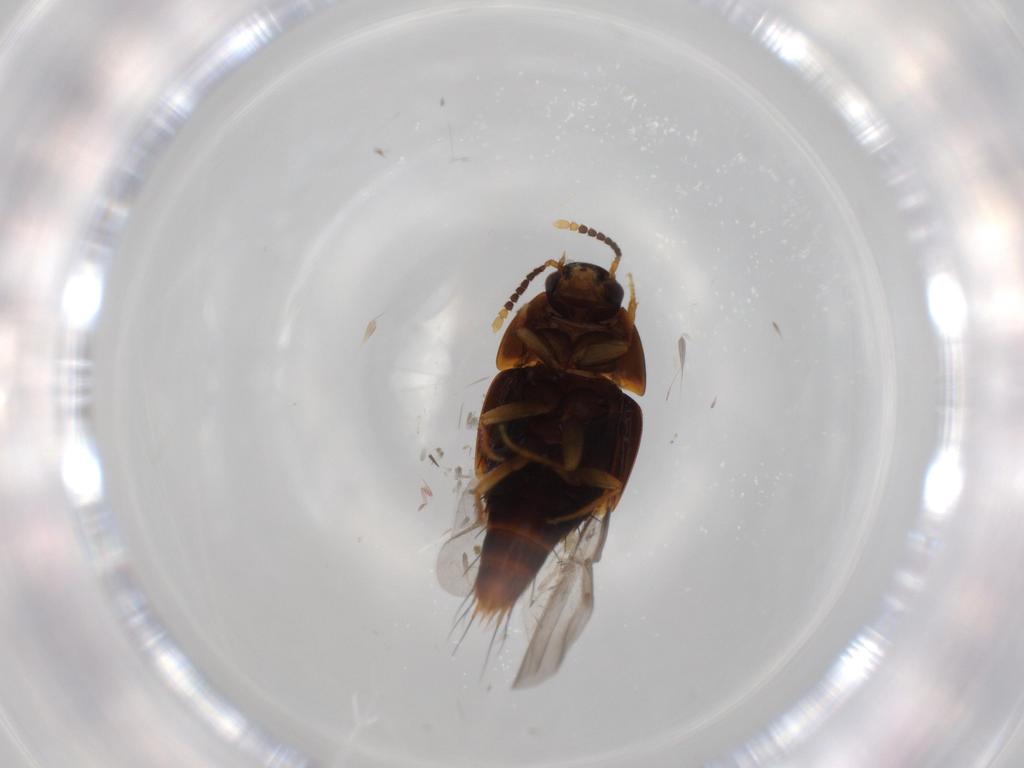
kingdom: Animalia
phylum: Arthropoda
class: Insecta
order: Coleoptera
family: Staphylinidae
